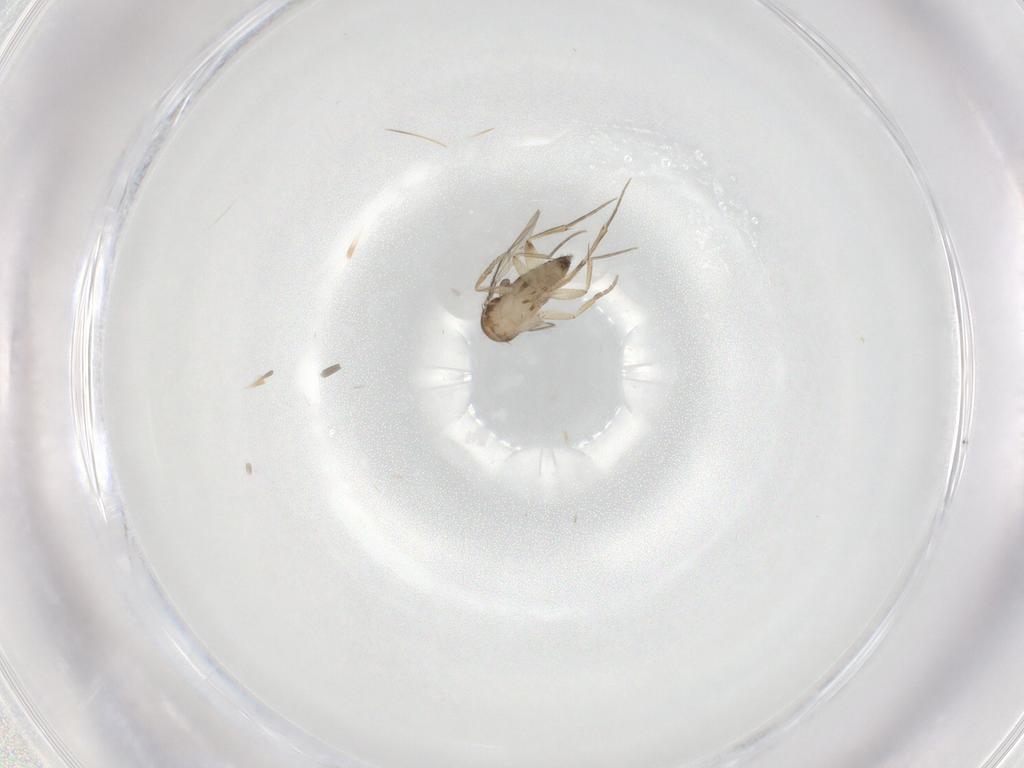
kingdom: Animalia
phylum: Arthropoda
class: Insecta
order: Diptera
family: Phoridae
